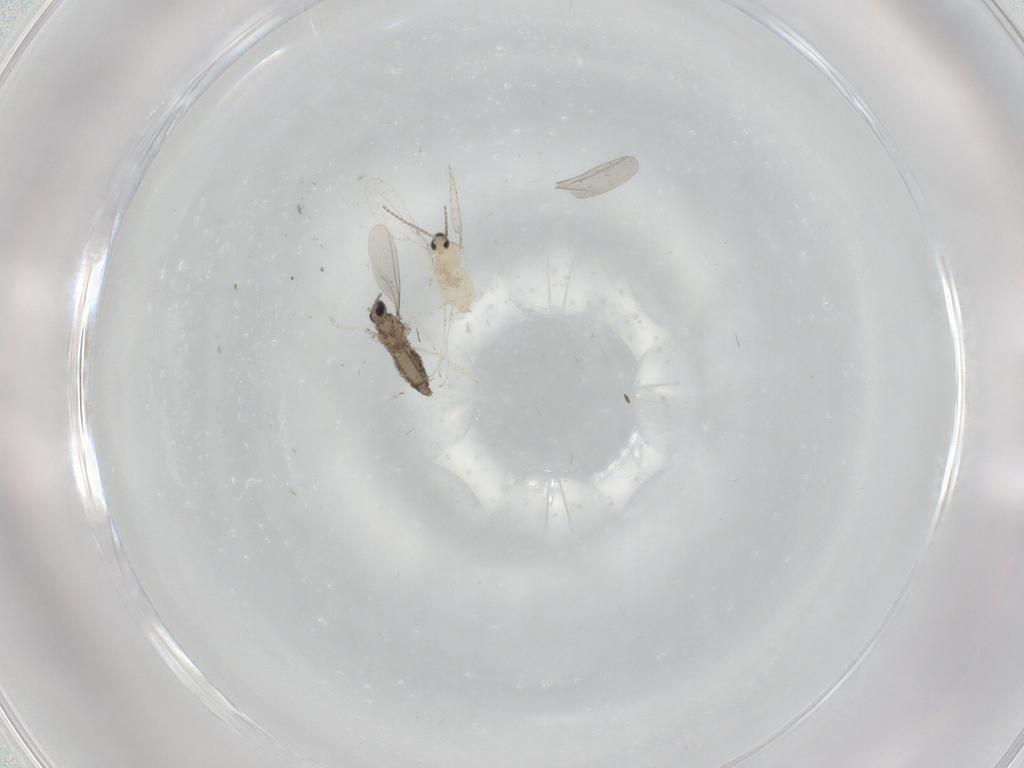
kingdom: Animalia
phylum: Arthropoda
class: Insecta
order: Diptera
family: Cecidomyiidae
